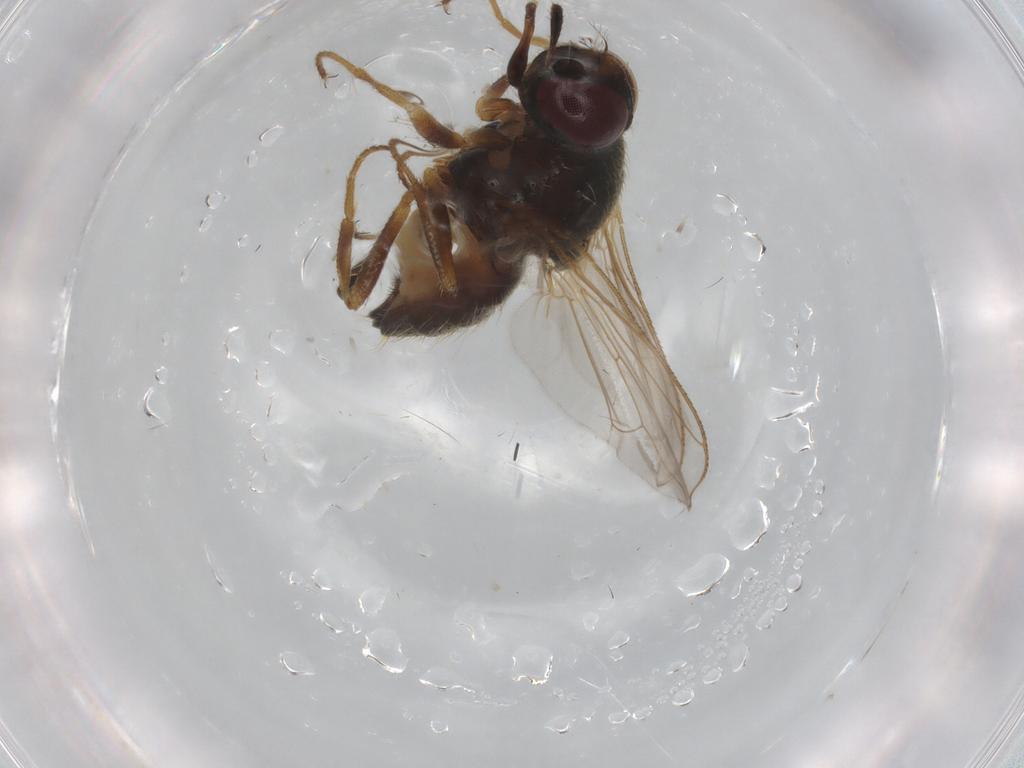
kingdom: Animalia
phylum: Arthropoda
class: Insecta
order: Diptera
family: Muscidae
